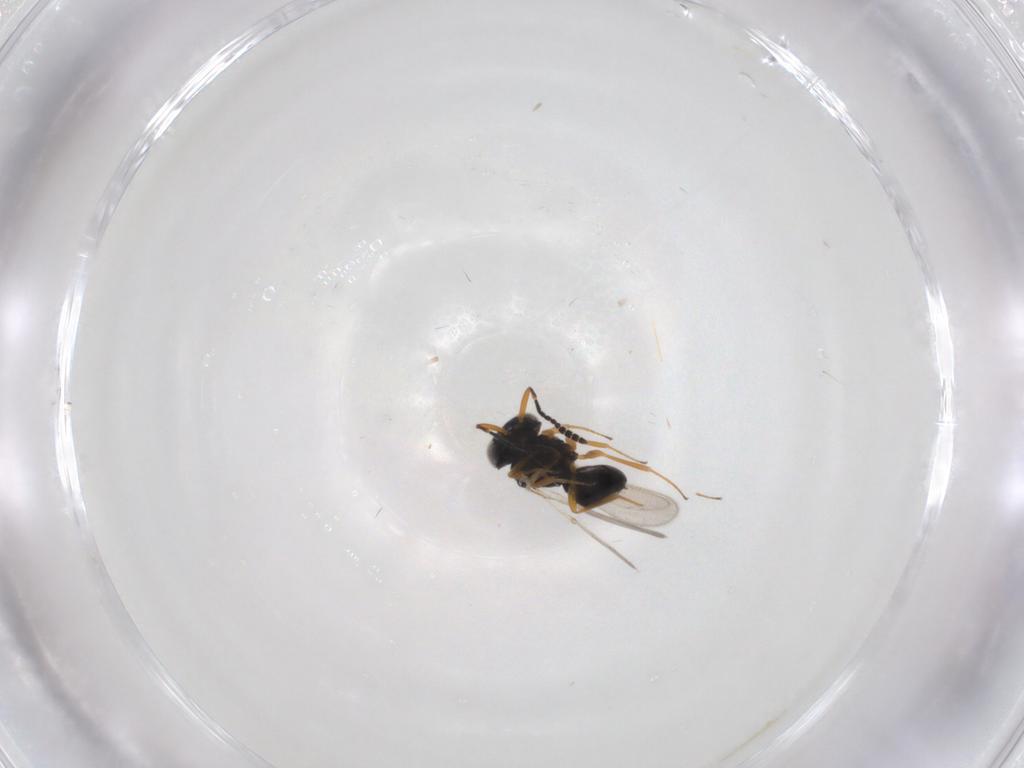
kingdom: Animalia
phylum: Arthropoda
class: Insecta
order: Hymenoptera
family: Scelionidae
